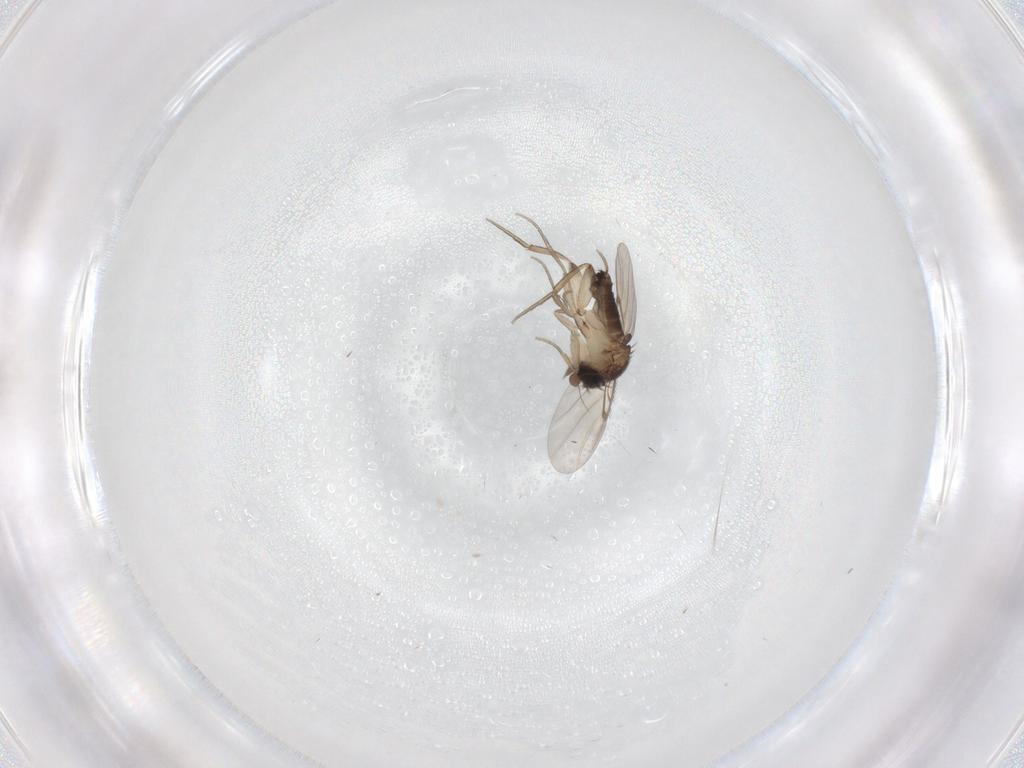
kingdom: Animalia
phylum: Arthropoda
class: Insecta
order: Diptera
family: Phoridae
